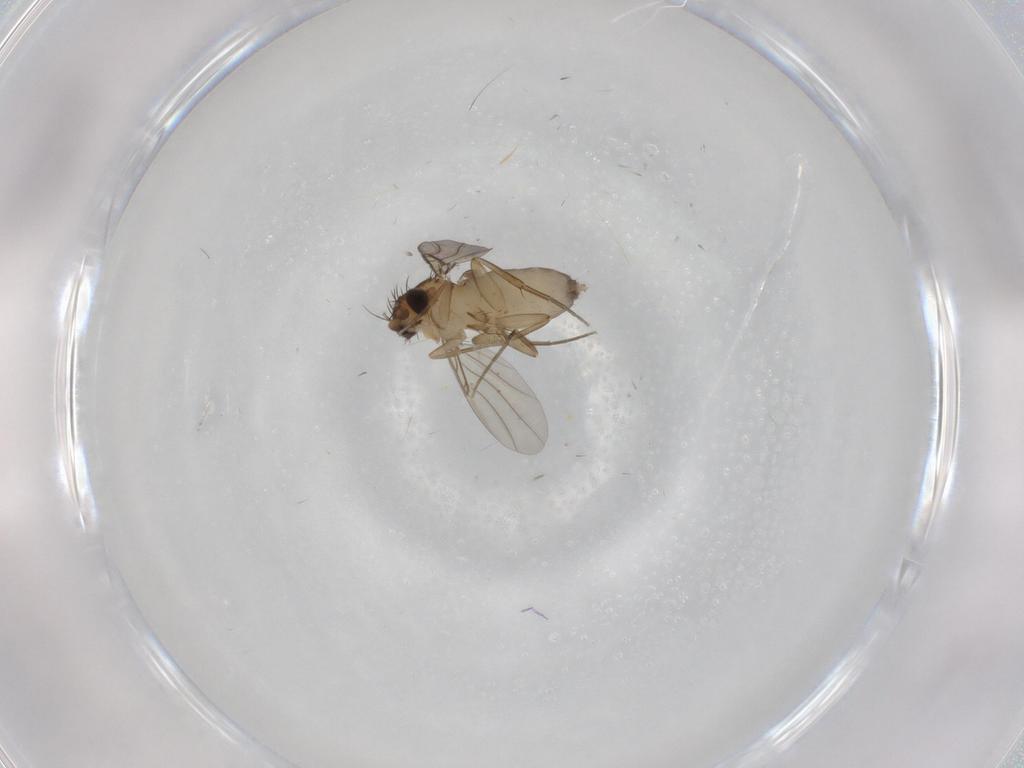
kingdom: Animalia
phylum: Arthropoda
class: Insecta
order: Diptera
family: Phoridae
